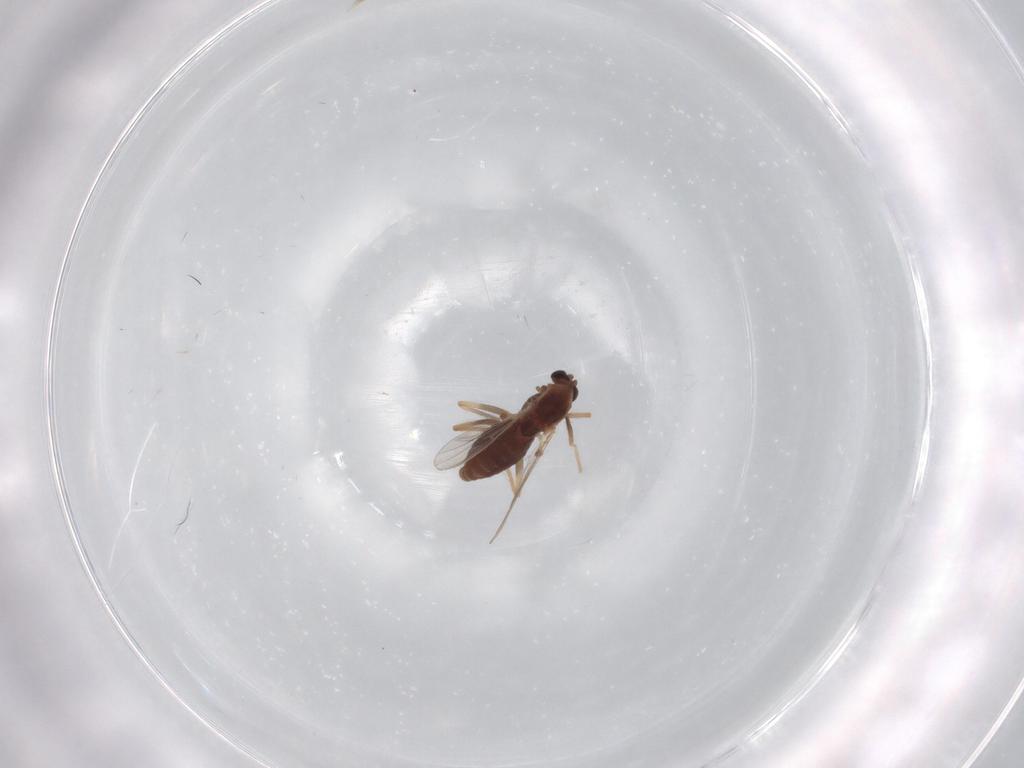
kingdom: Animalia
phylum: Arthropoda
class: Insecta
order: Diptera
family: Chironomidae
